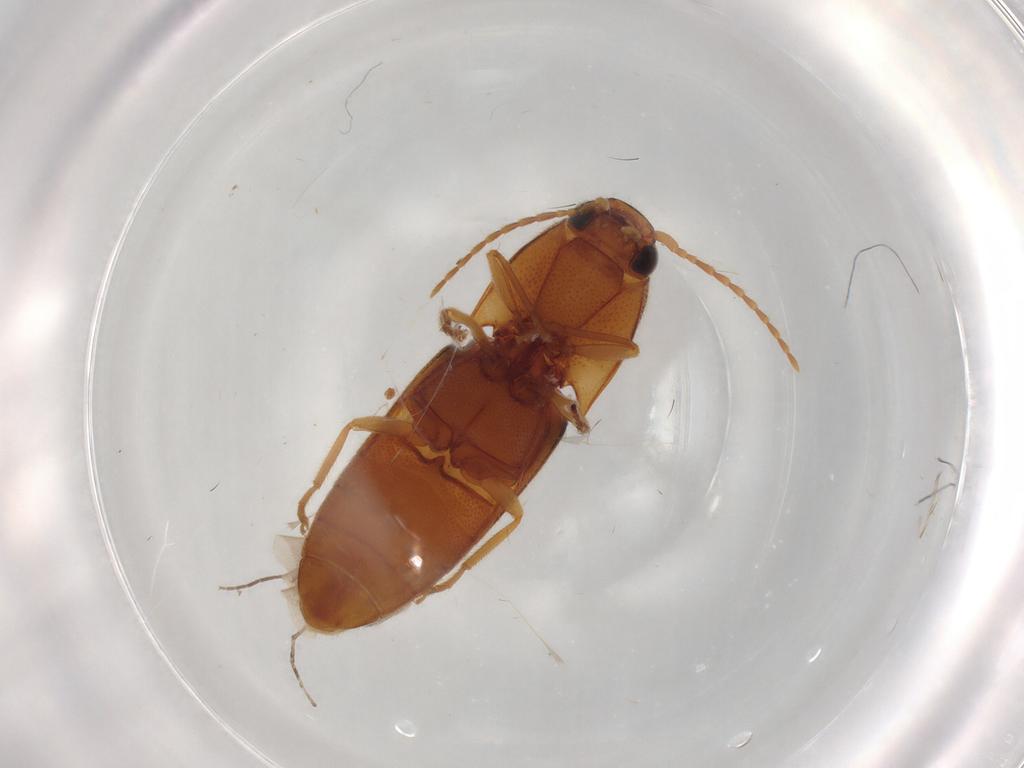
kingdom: Animalia
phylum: Arthropoda
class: Insecta
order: Coleoptera
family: Elateridae
